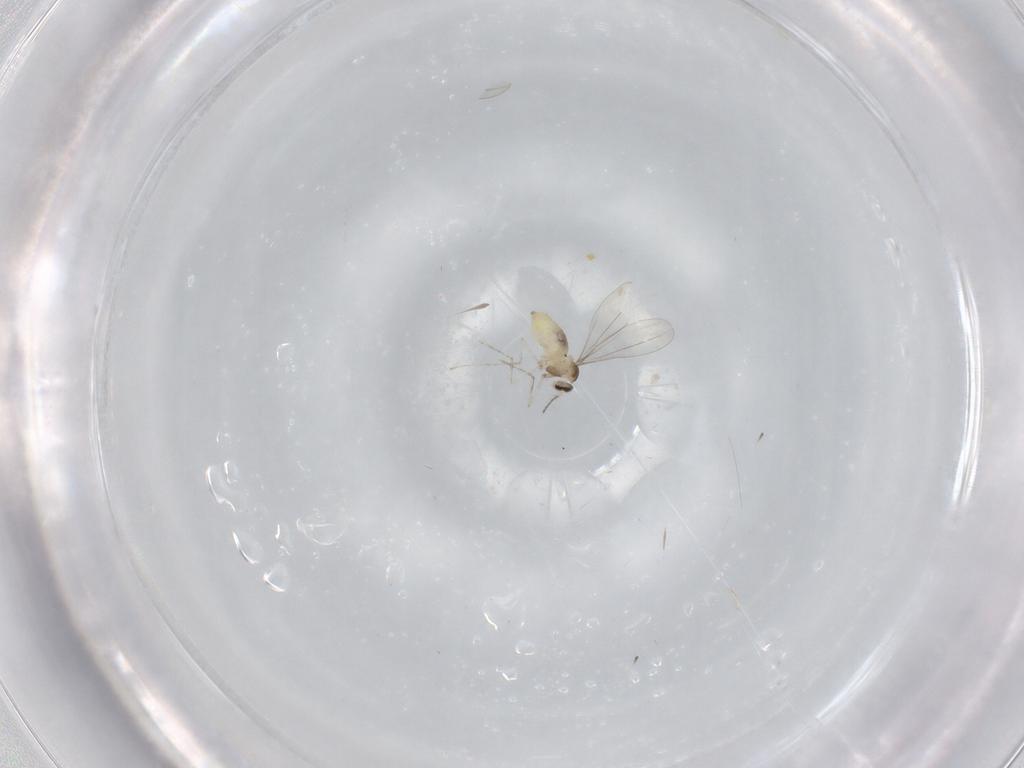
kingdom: Animalia
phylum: Arthropoda
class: Insecta
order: Diptera
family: Cecidomyiidae
